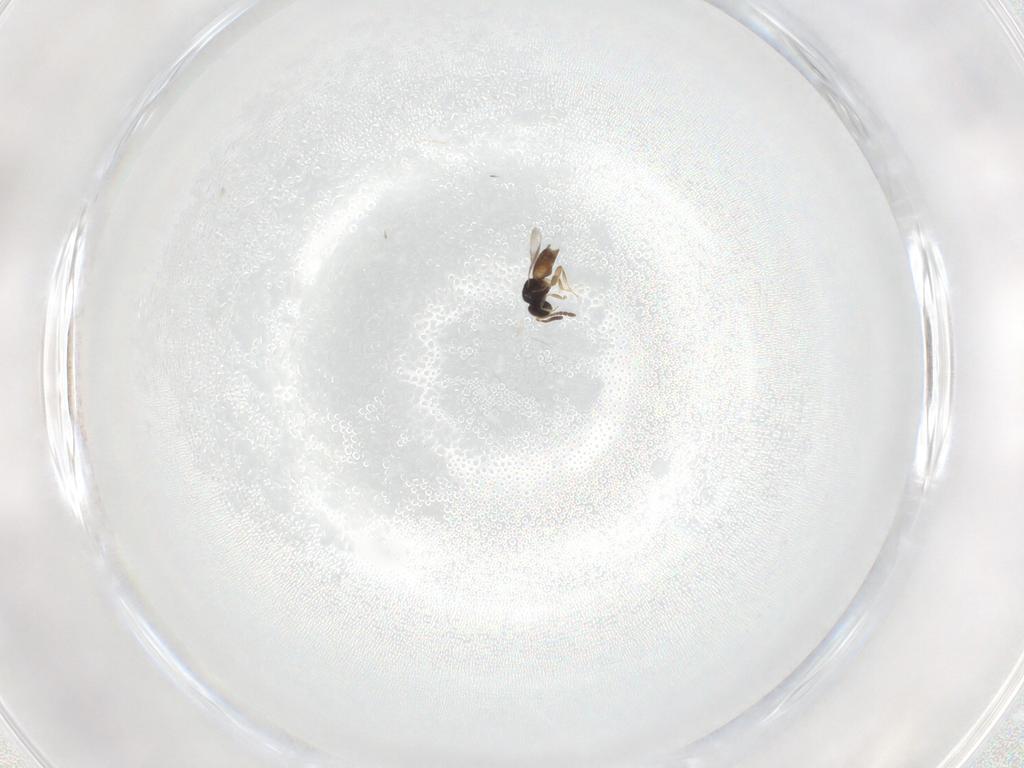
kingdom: Animalia
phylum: Arthropoda
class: Insecta
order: Hymenoptera
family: Ceraphronidae
